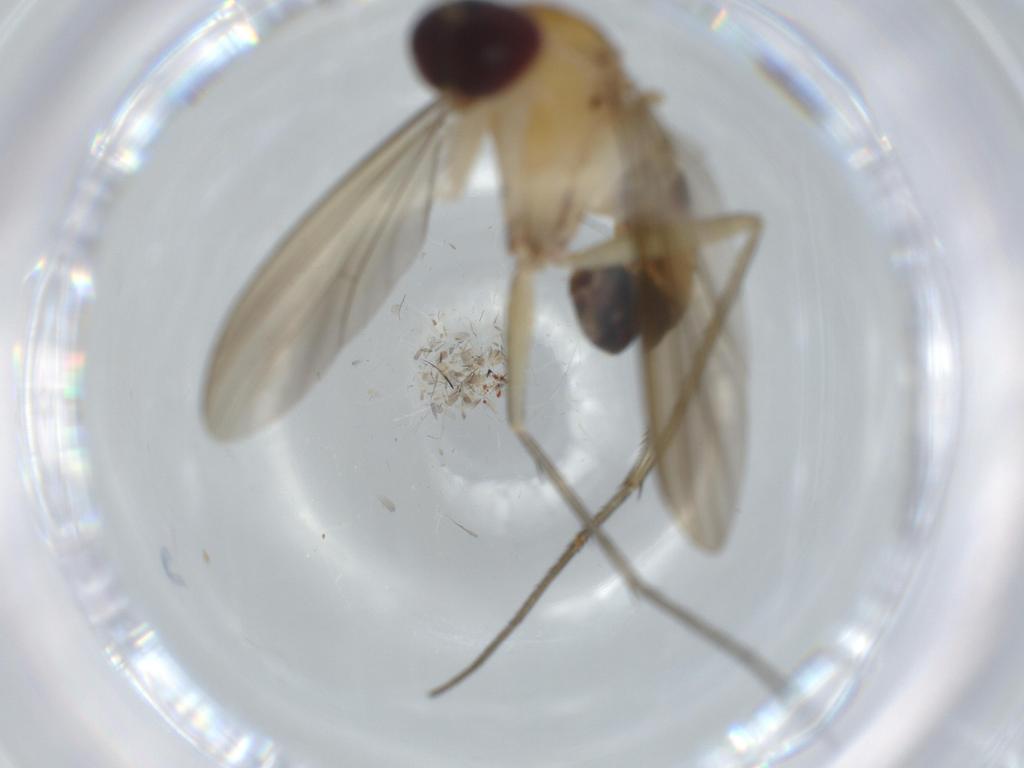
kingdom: Animalia
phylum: Arthropoda
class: Insecta
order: Diptera
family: Dolichopodidae
